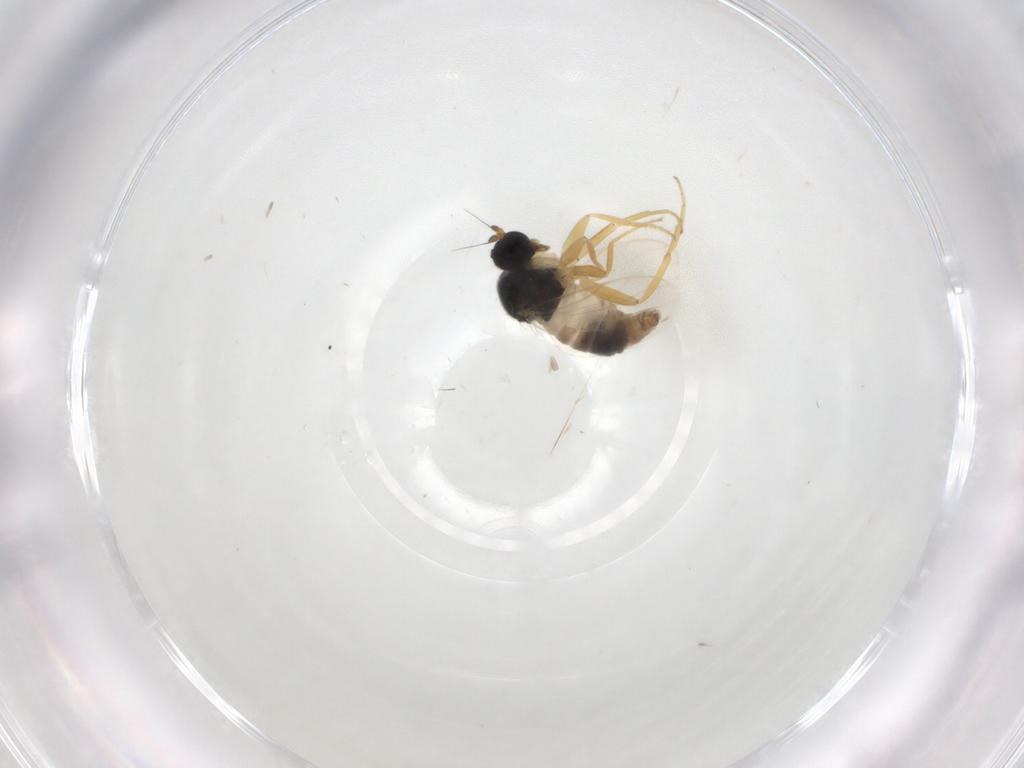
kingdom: Animalia
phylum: Arthropoda
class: Insecta
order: Diptera
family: Hybotidae
